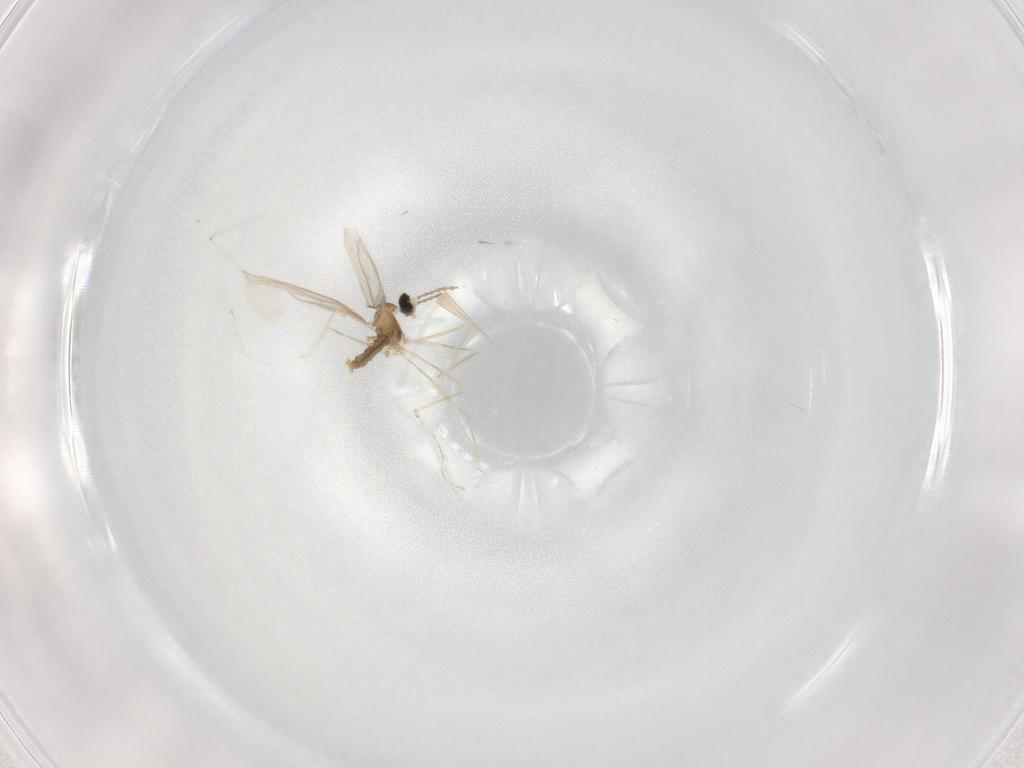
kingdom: Animalia
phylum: Arthropoda
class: Insecta
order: Diptera
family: Cecidomyiidae
